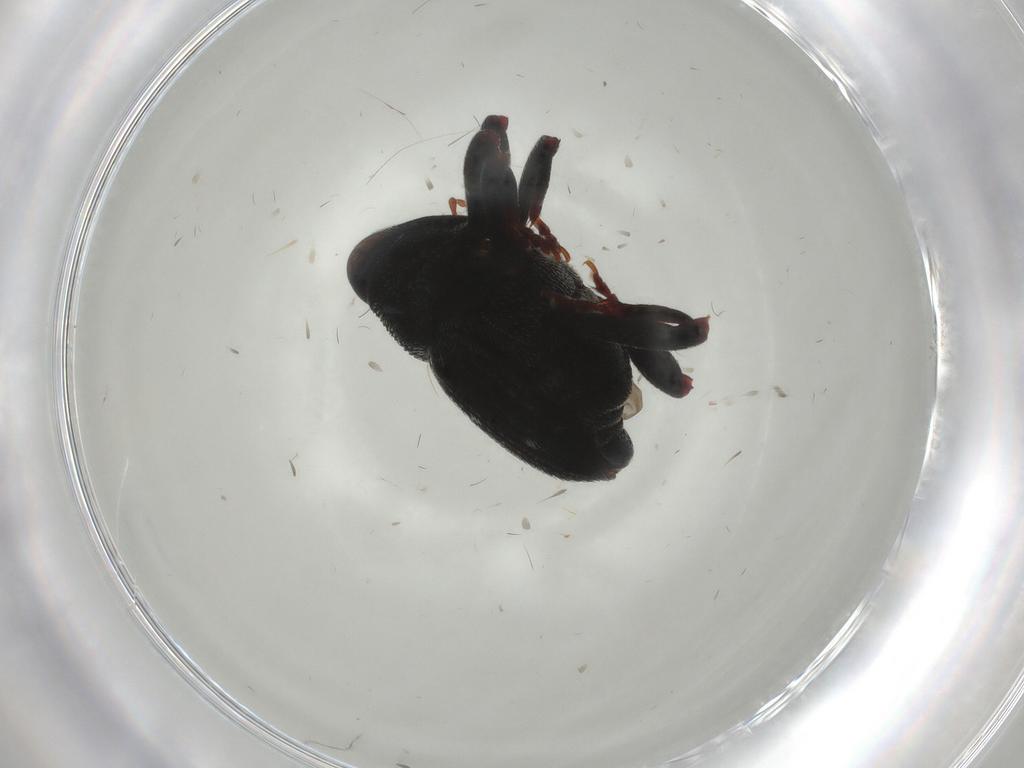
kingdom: Animalia
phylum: Arthropoda
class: Insecta
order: Coleoptera
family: Curculionidae
